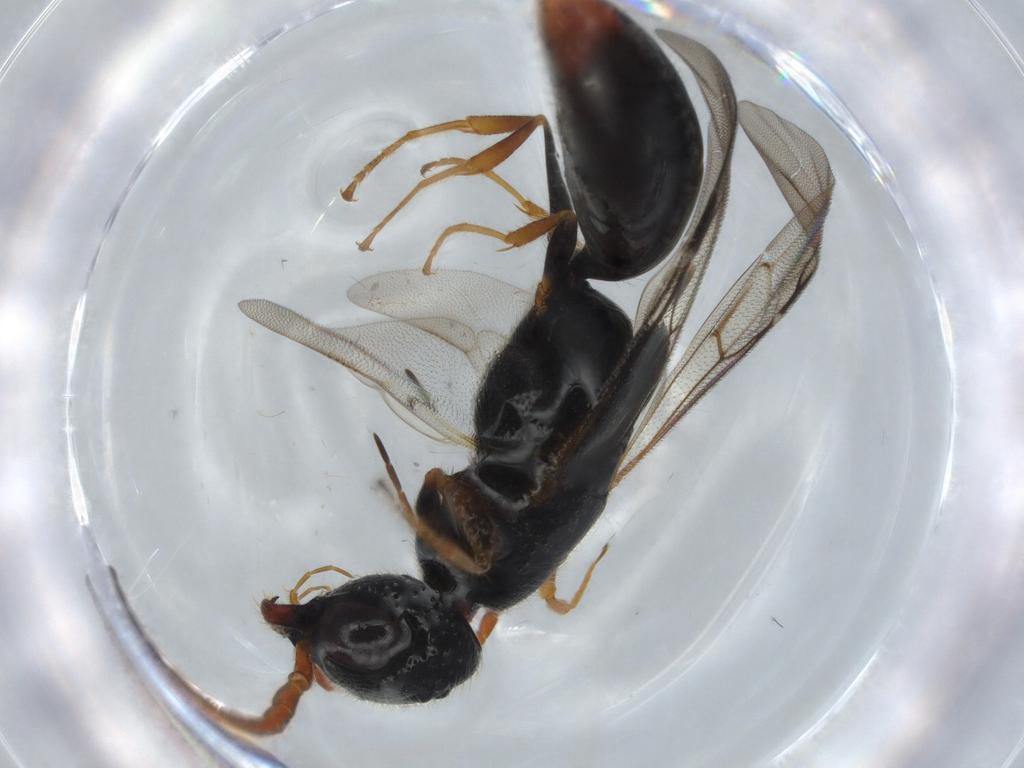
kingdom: Animalia
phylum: Arthropoda
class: Insecta
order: Hymenoptera
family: Bethylidae
